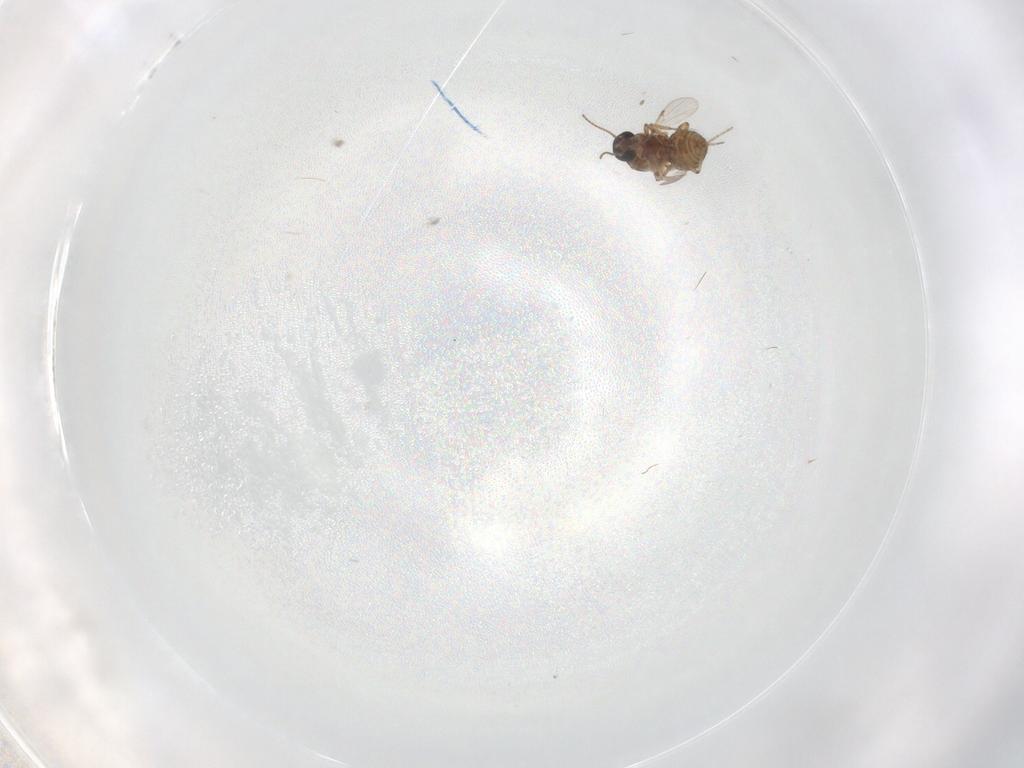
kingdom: Animalia
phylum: Arthropoda
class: Insecta
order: Diptera
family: Ceratopogonidae
